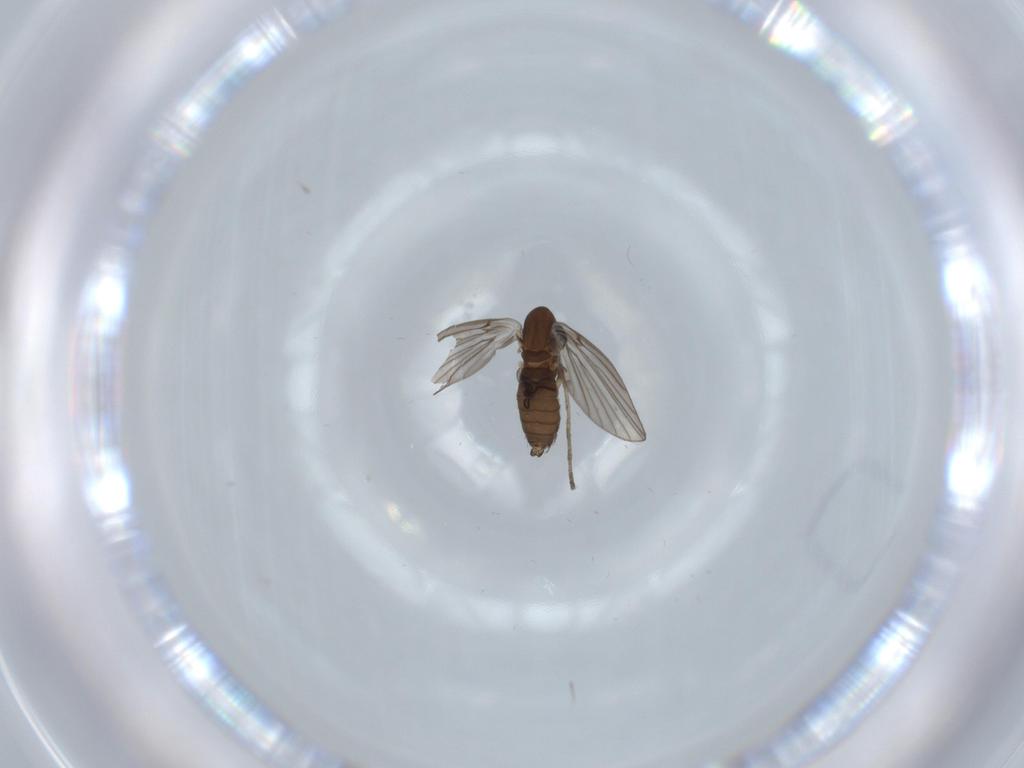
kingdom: Animalia
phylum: Arthropoda
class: Insecta
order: Diptera
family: Sciaridae
